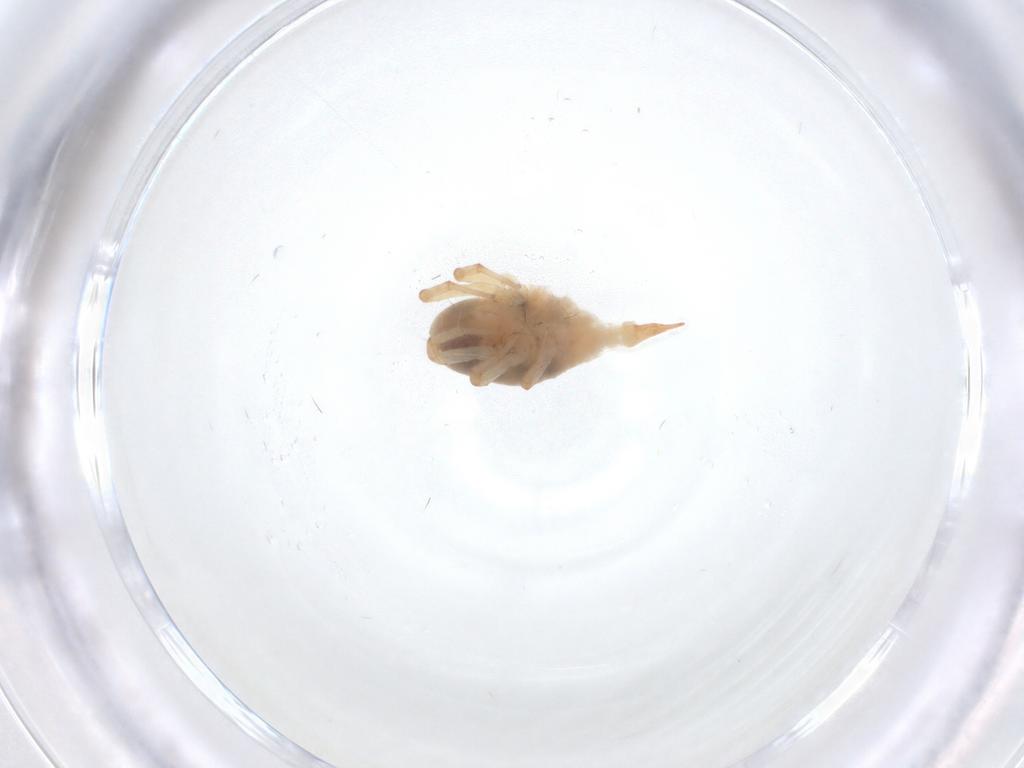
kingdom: Animalia
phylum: Arthropoda
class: Arachnida
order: Trombidiformes
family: Bdellidae
